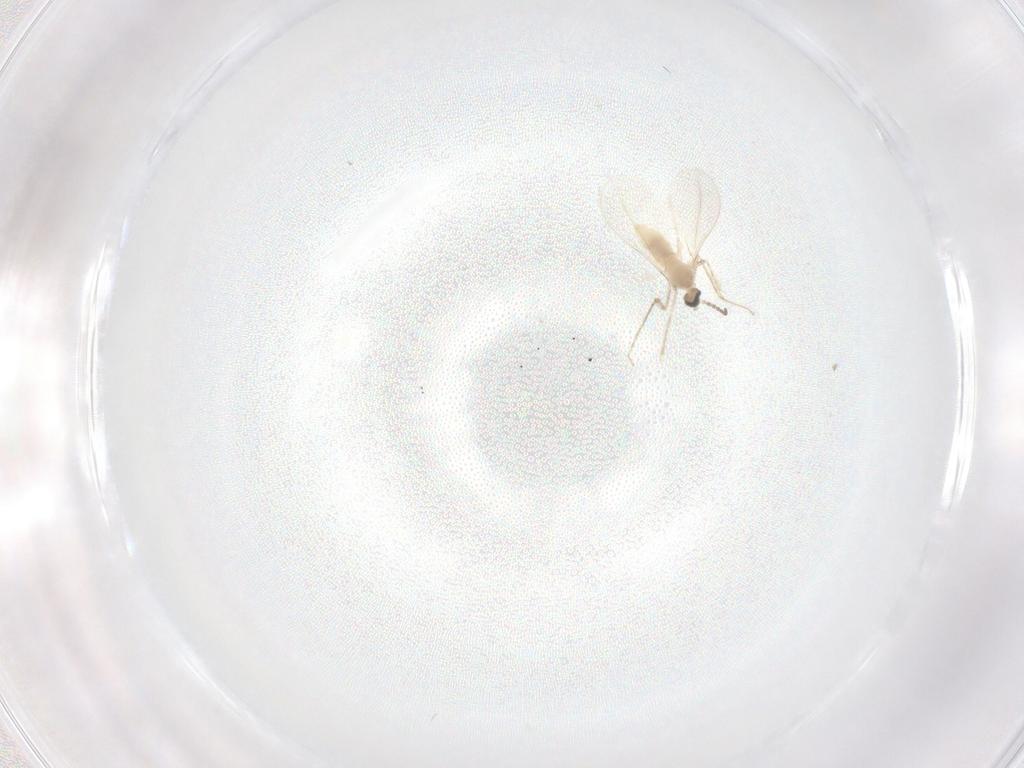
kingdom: Animalia
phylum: Arthropoda
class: Insecta
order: Diptera
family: Cecidomyiidae
